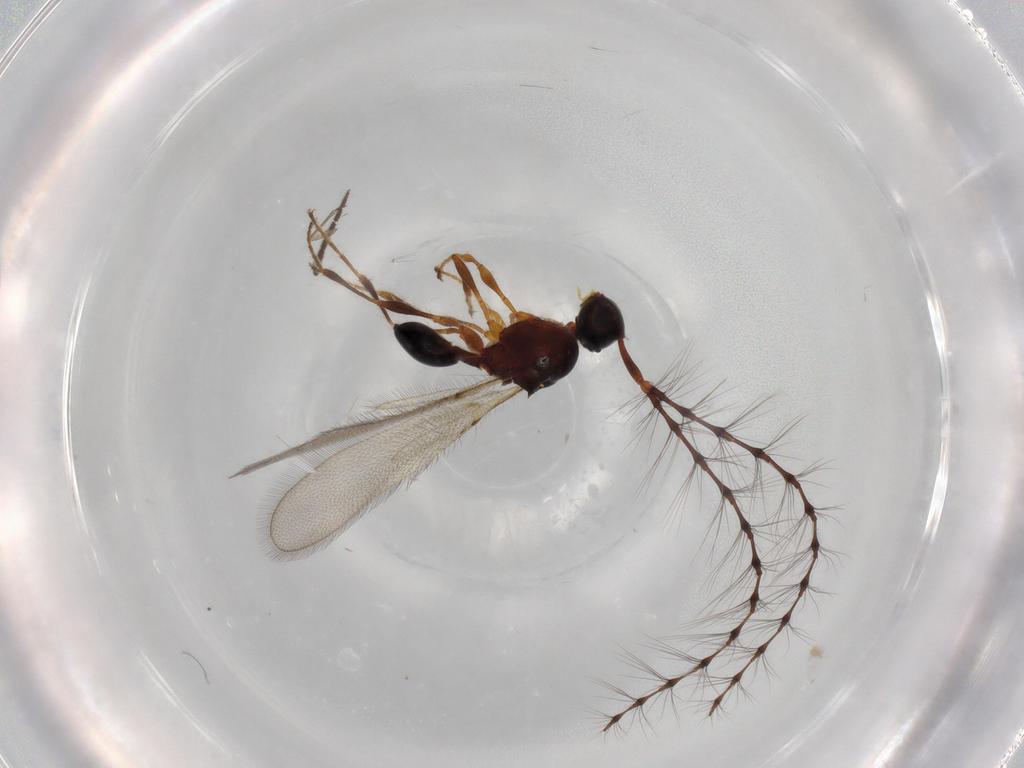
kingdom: Animalia
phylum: Arthropoda
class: Insecta
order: Hymenoptera
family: Diapriidae
